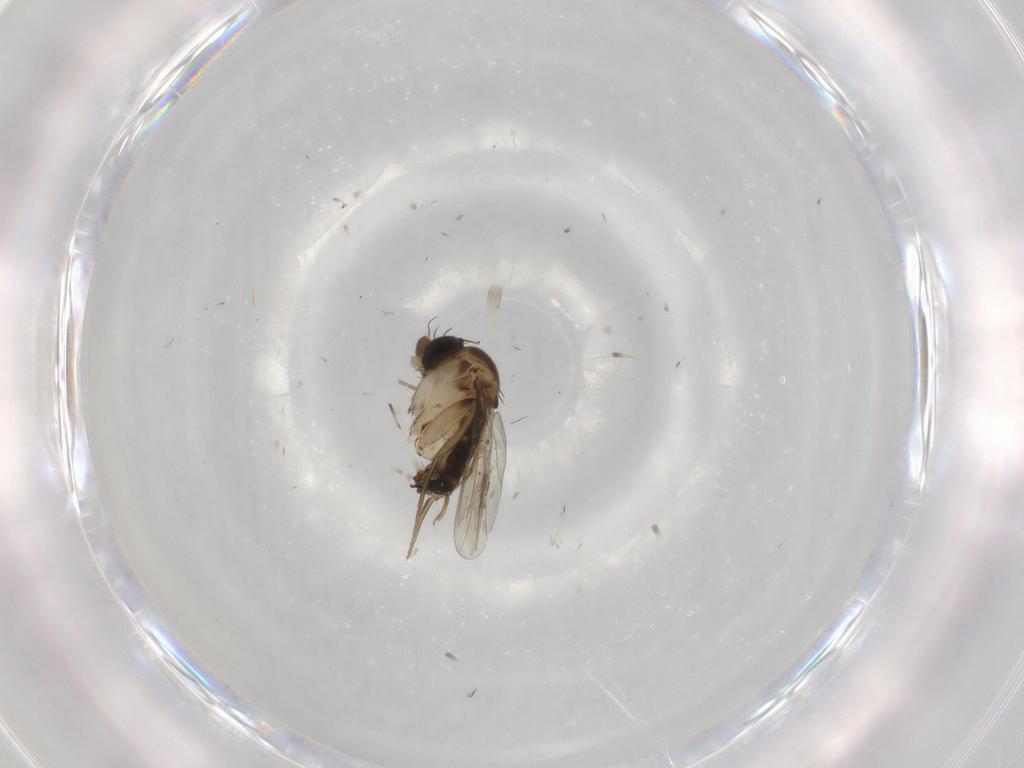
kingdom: Animalia
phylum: Arthropoda
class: Insecta
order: Diptera
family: Phoridae
